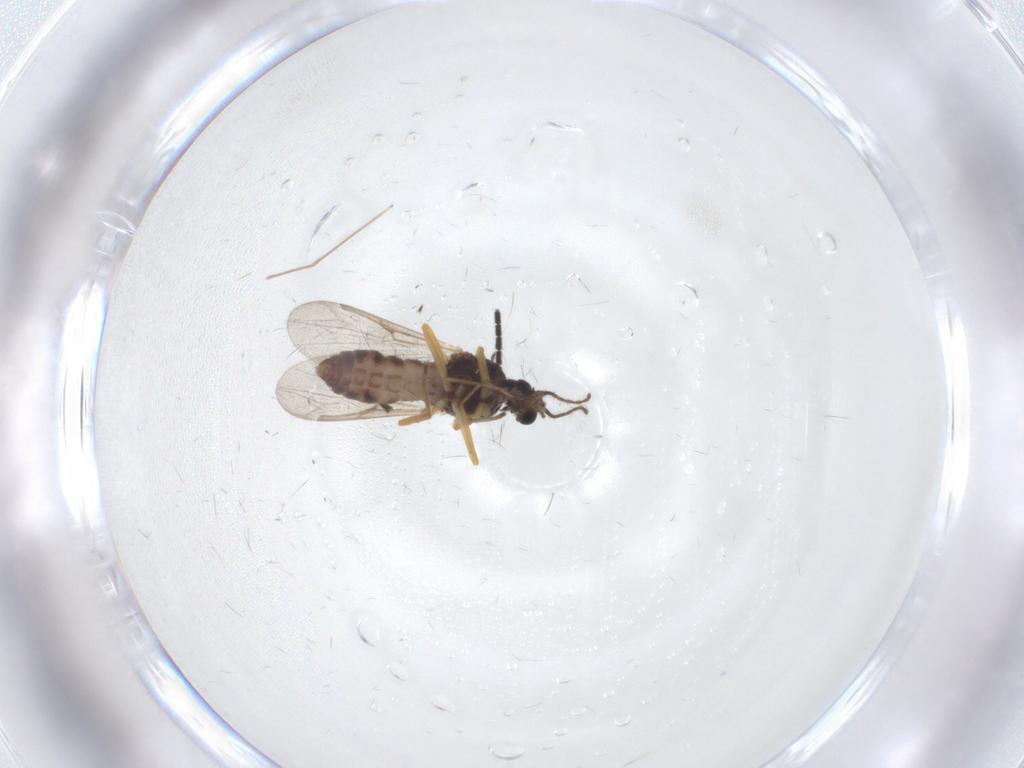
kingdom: Animalia
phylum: Arthropoda
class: Insecta
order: Diptera
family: Ceratopogonidae
